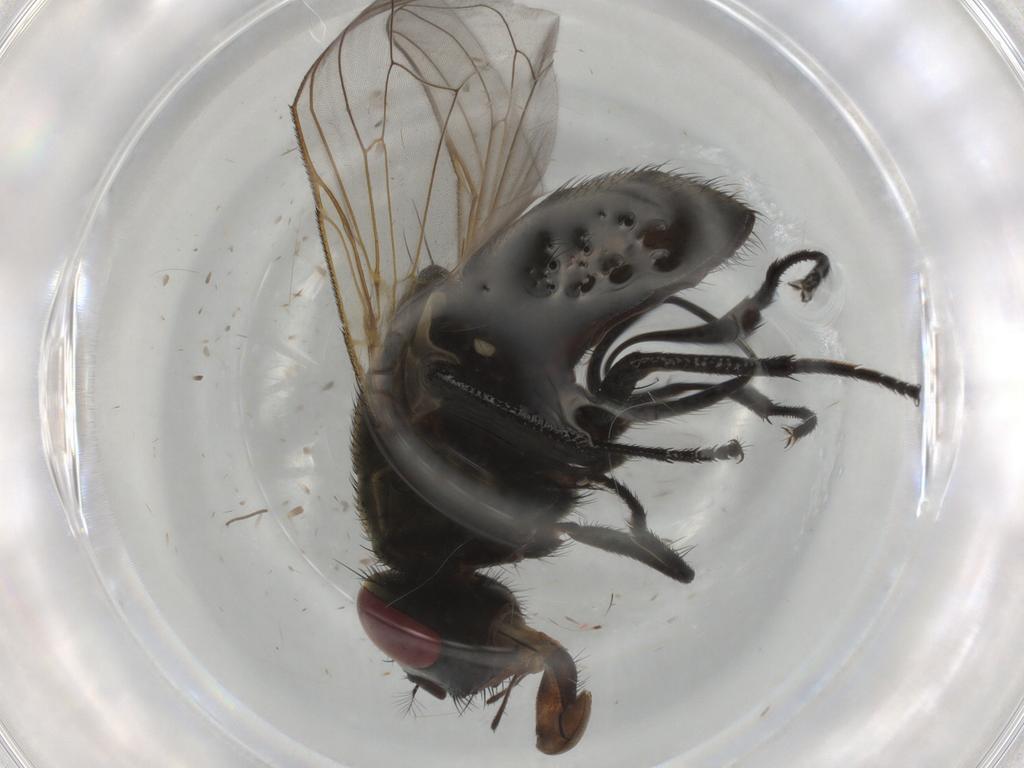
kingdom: Animalia
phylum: Arthropoda
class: Insecta
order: Diptera
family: Muscidae
